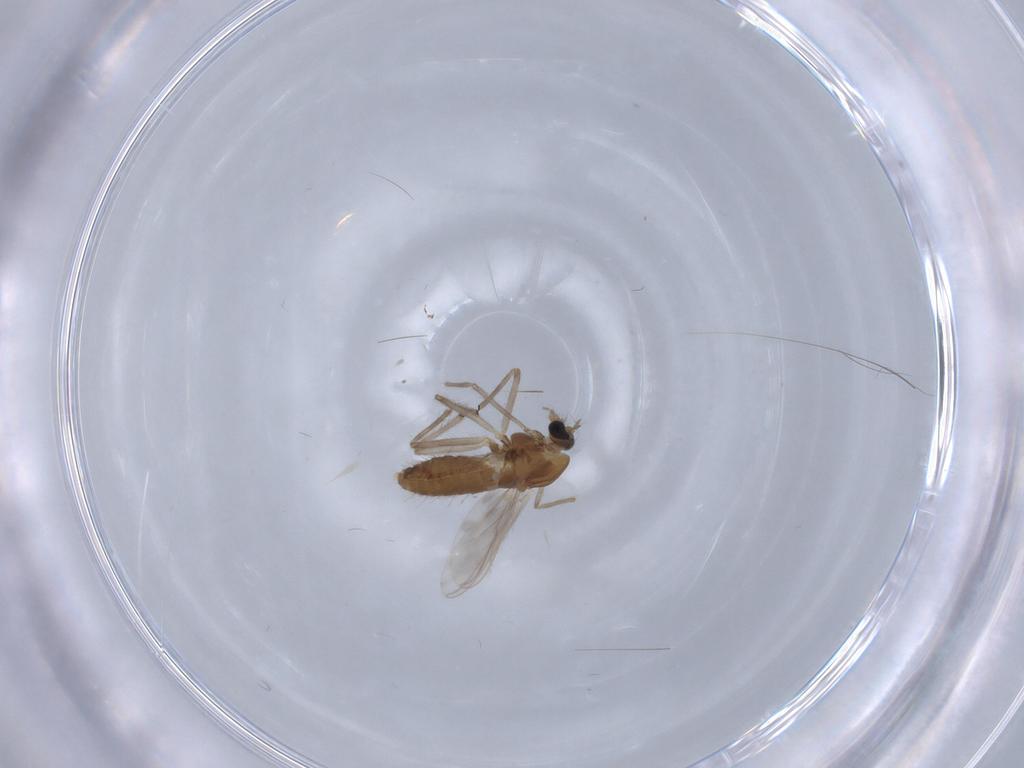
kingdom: Animalia
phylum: Arthropoda
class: Insecta
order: Diptera
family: Chironomidae
